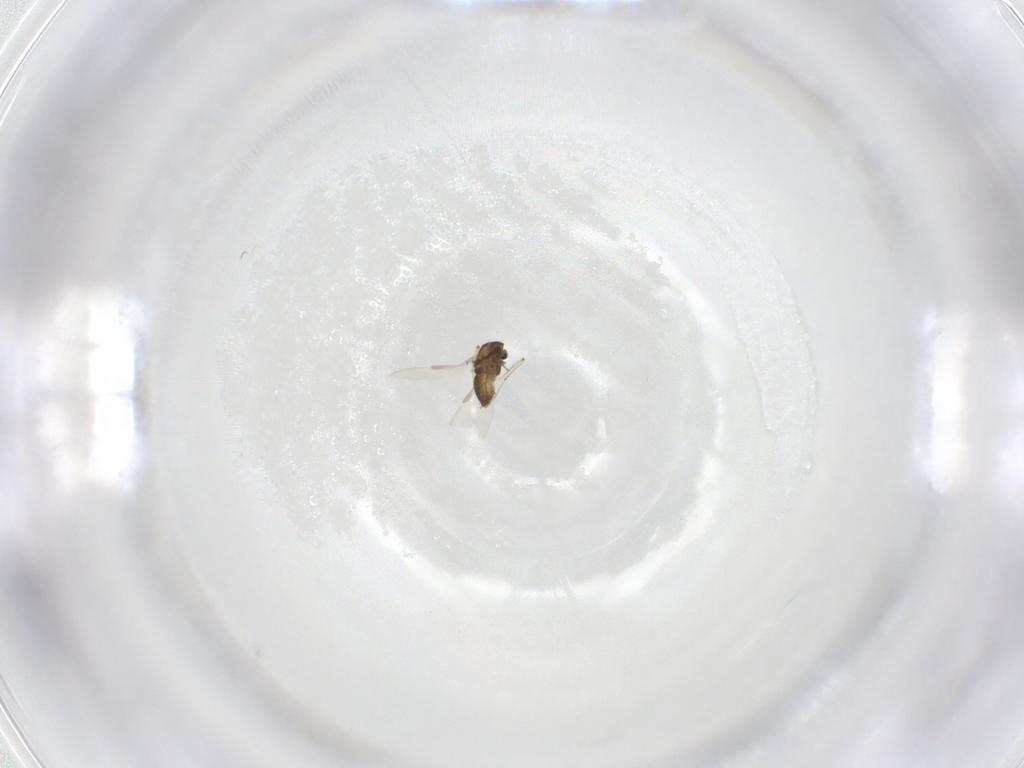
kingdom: Animalia
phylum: Arthropoda
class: Insecta
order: Diptera
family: Chironomidae
